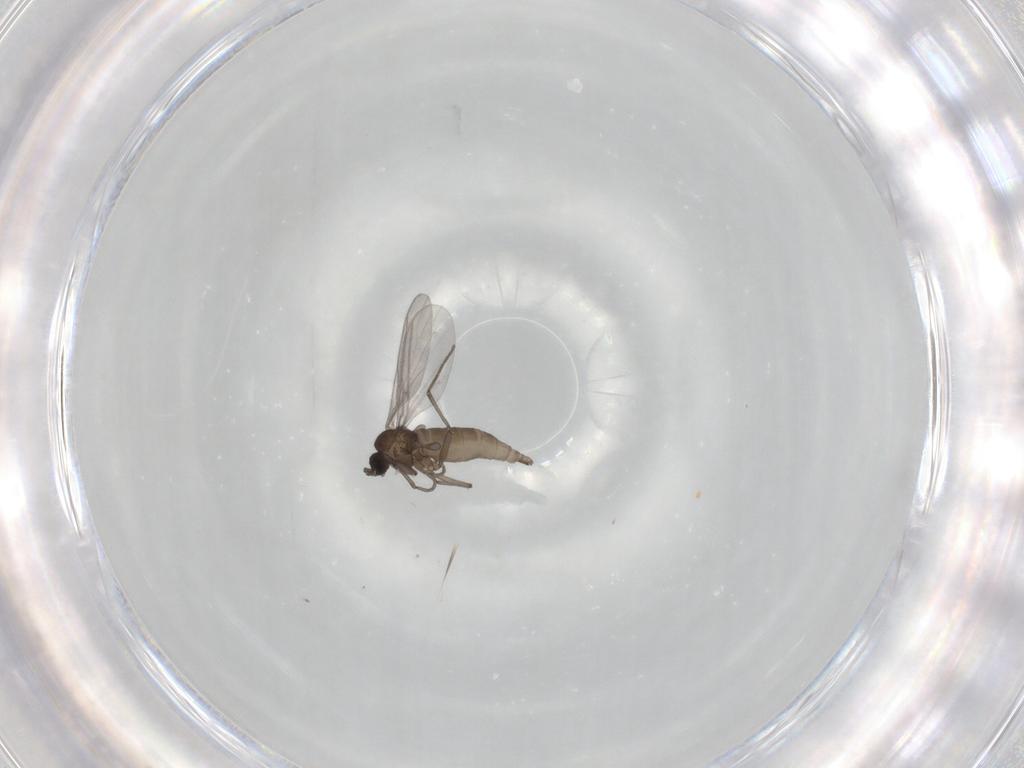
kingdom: Animalia
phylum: Arthropoda
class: Insecta
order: Diptera
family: Sciaridae
